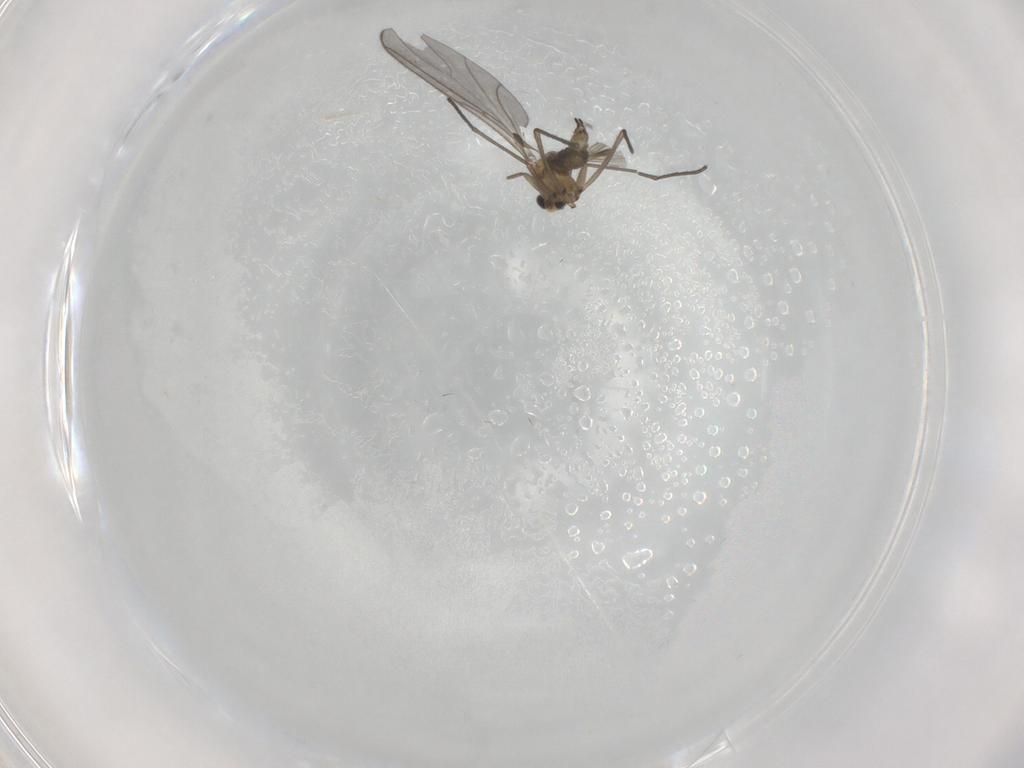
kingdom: Animalia
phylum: Arthropoda
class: Insecta
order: Diptera
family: Sciaridae
